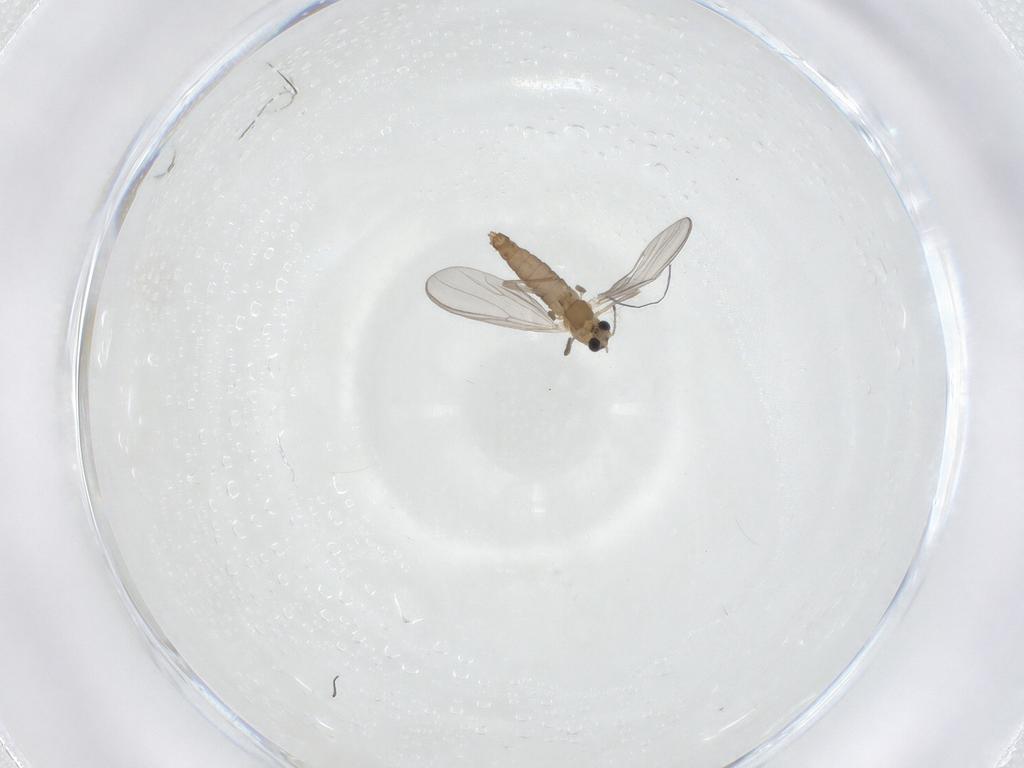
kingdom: Animalia
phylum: Arthropoda
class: Insecta
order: Diptera
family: Chironomidae
